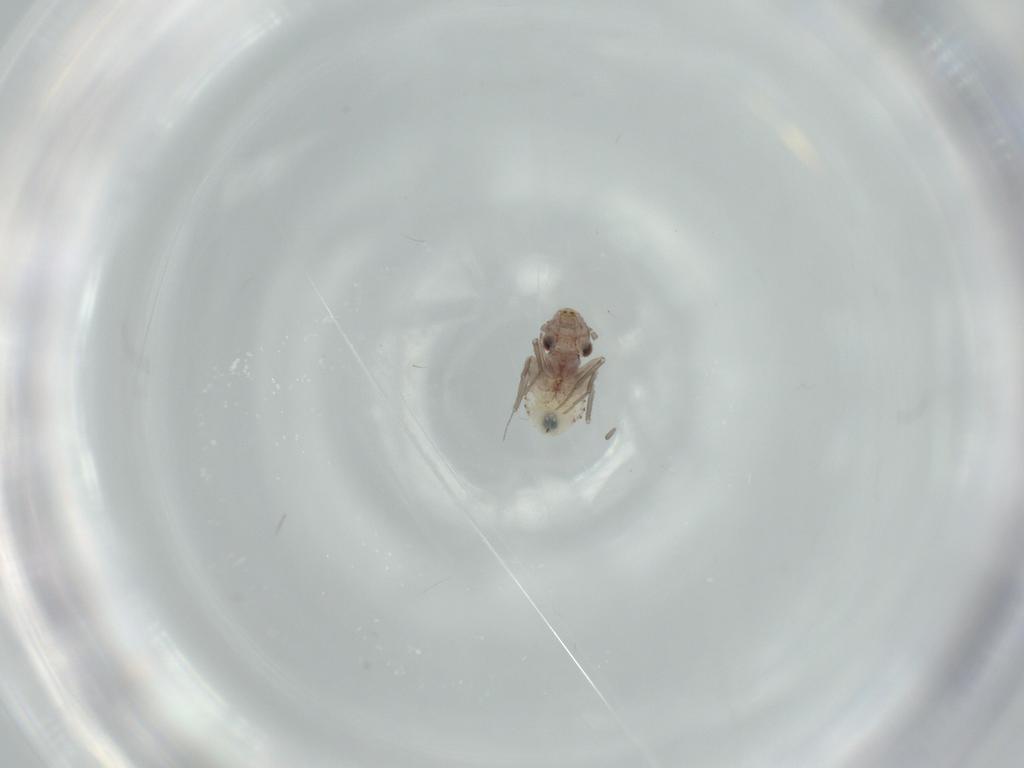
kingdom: Animalia
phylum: Arthropoda
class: Insecta
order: Psocodea
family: Lepidopsocidae
